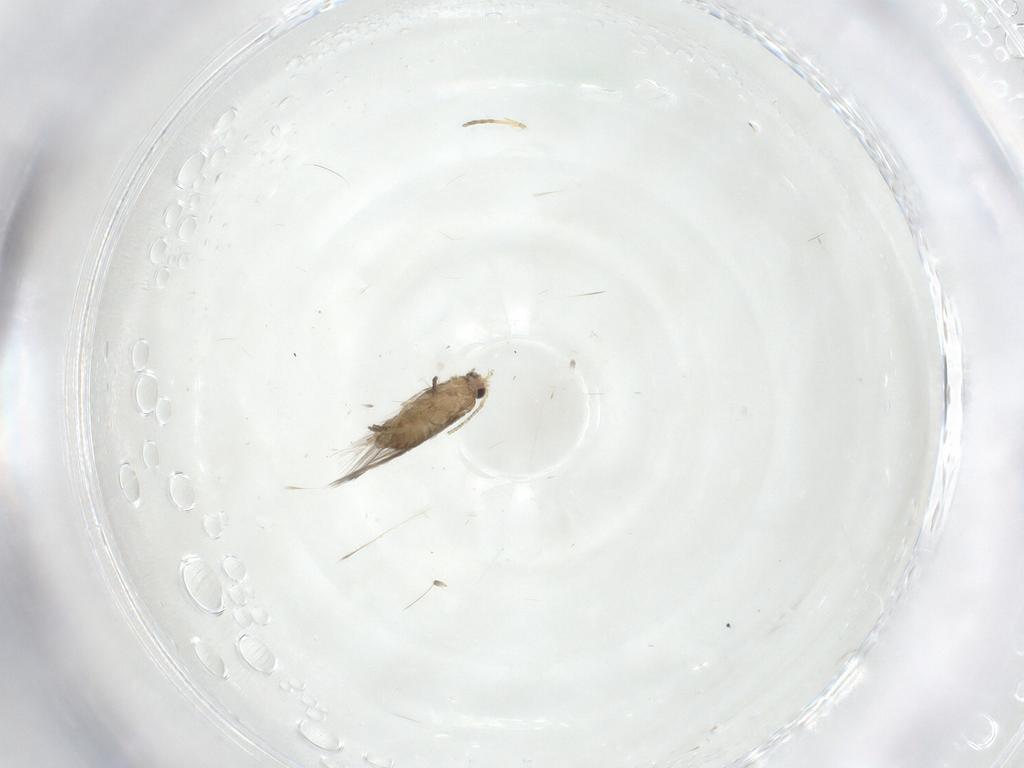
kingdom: Animalia
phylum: Arthropoda
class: Insecta
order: Lepidoptera
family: Nepticulidae
